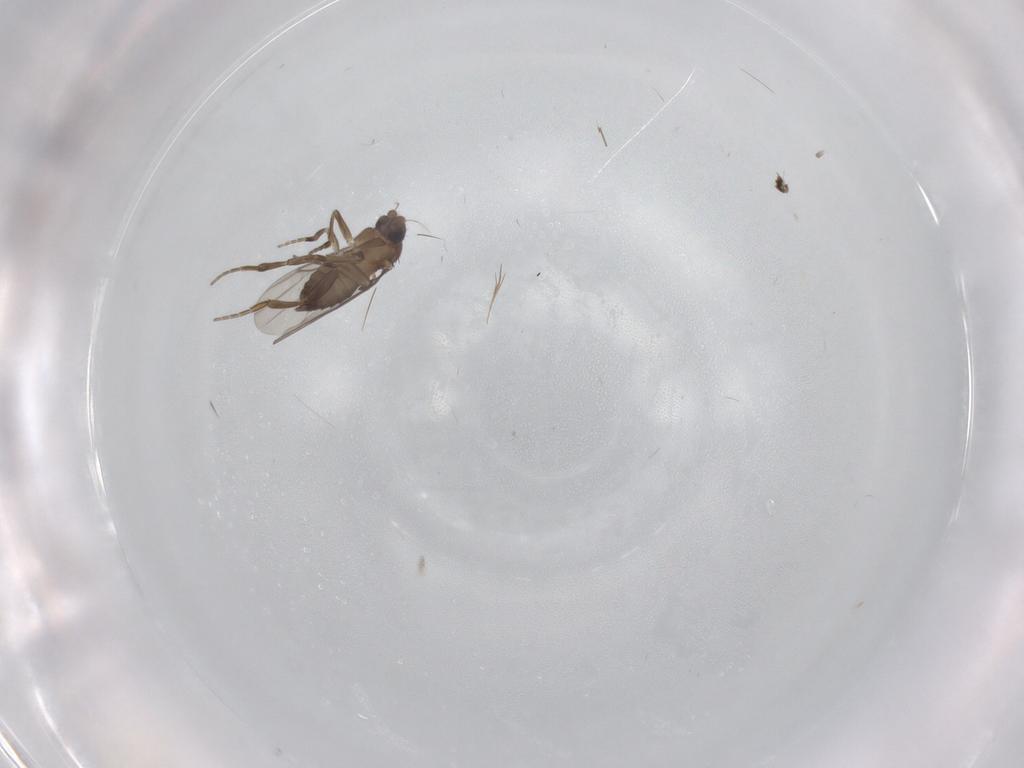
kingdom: Animalia
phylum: Arthropoda
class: Insecta
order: Diptera
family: Phoridae
